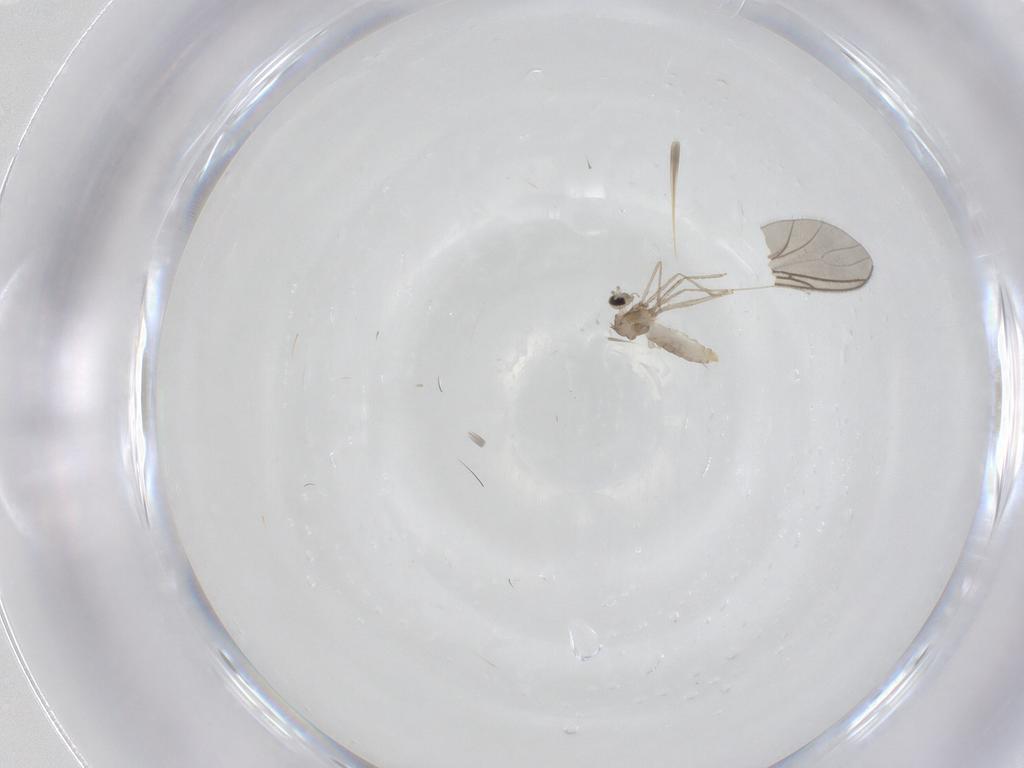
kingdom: Animalia
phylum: Arthropoda
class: Insecta
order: Diptera
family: Sciaridae
